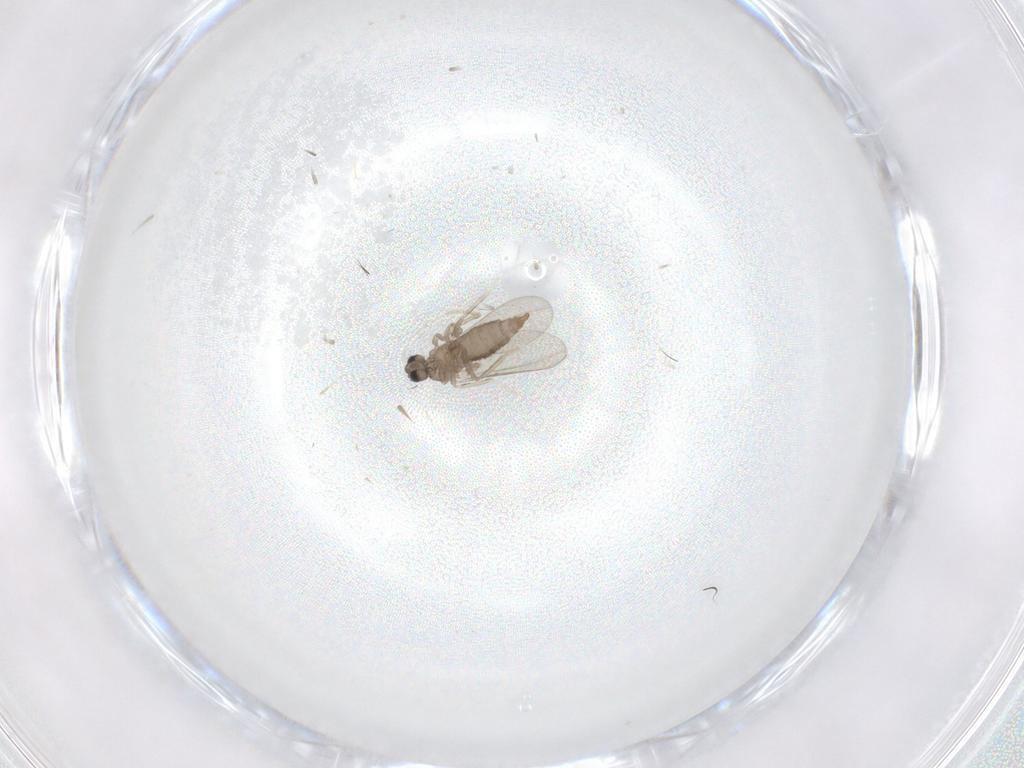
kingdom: Animalia
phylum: Arthropoda
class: Insecta
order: Diptera
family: Cecidomyiidae
